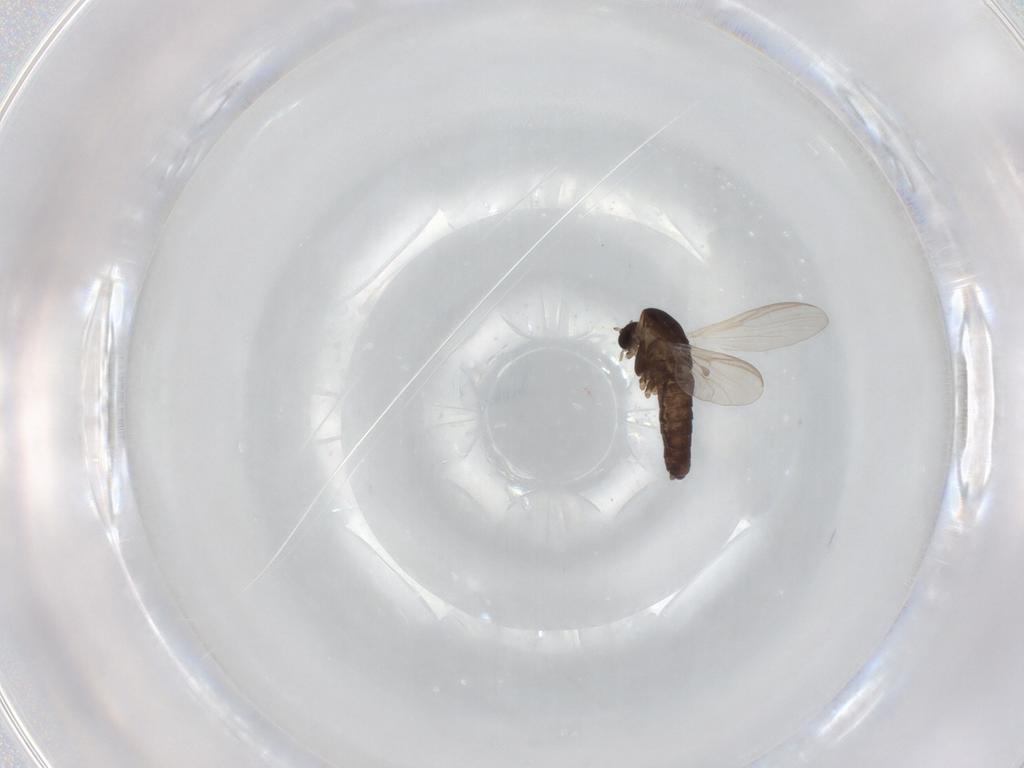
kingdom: Animalia
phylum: Arthropoda
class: Insecta
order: Diptera
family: Chironomidae
